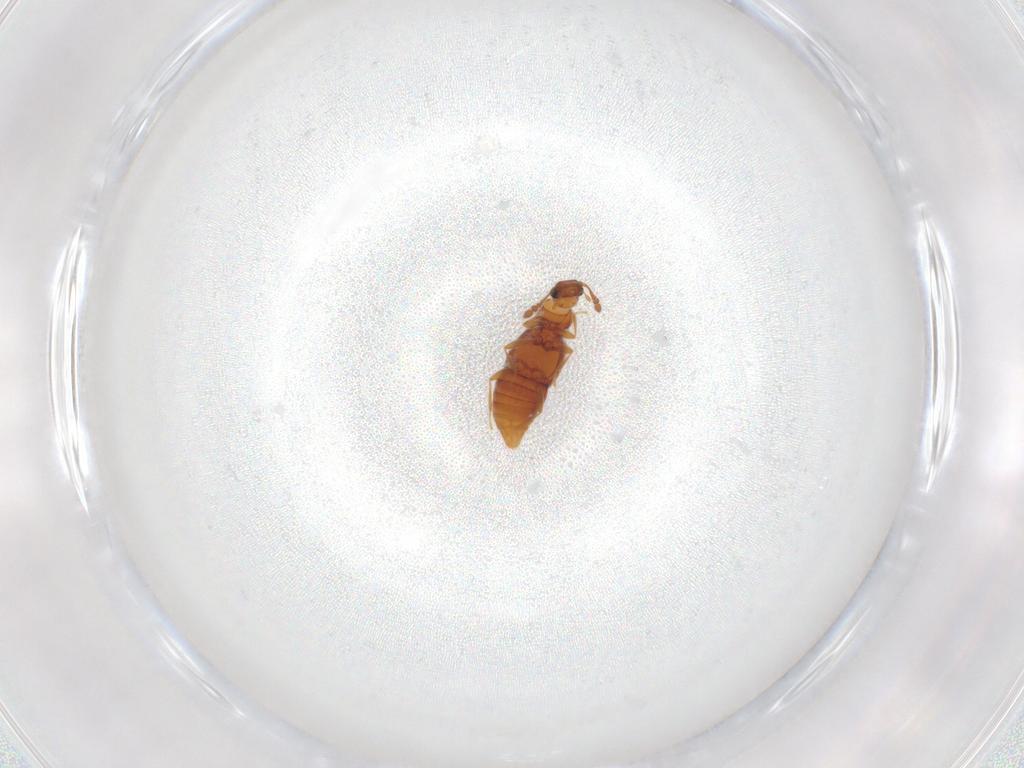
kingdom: Animalia
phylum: Arthropoda
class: Insecta
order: Coleoptera
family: Staphylinidae
